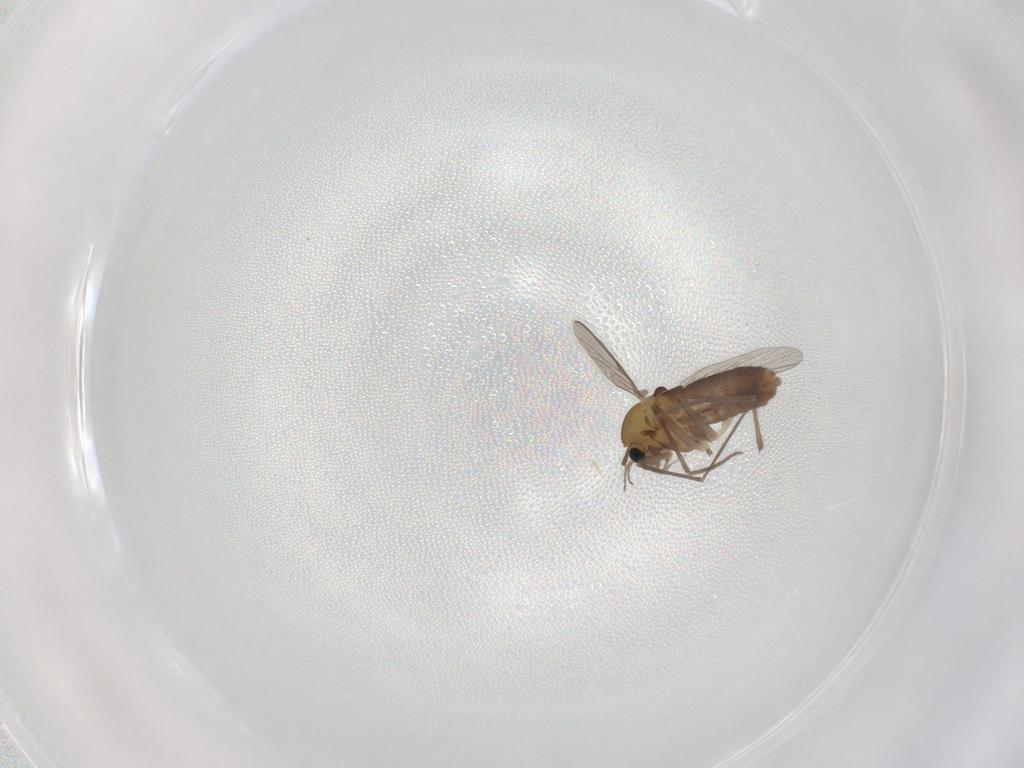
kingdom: Animalia
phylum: Arthropoda
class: Insecta
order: Diptera
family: Chironomidae
